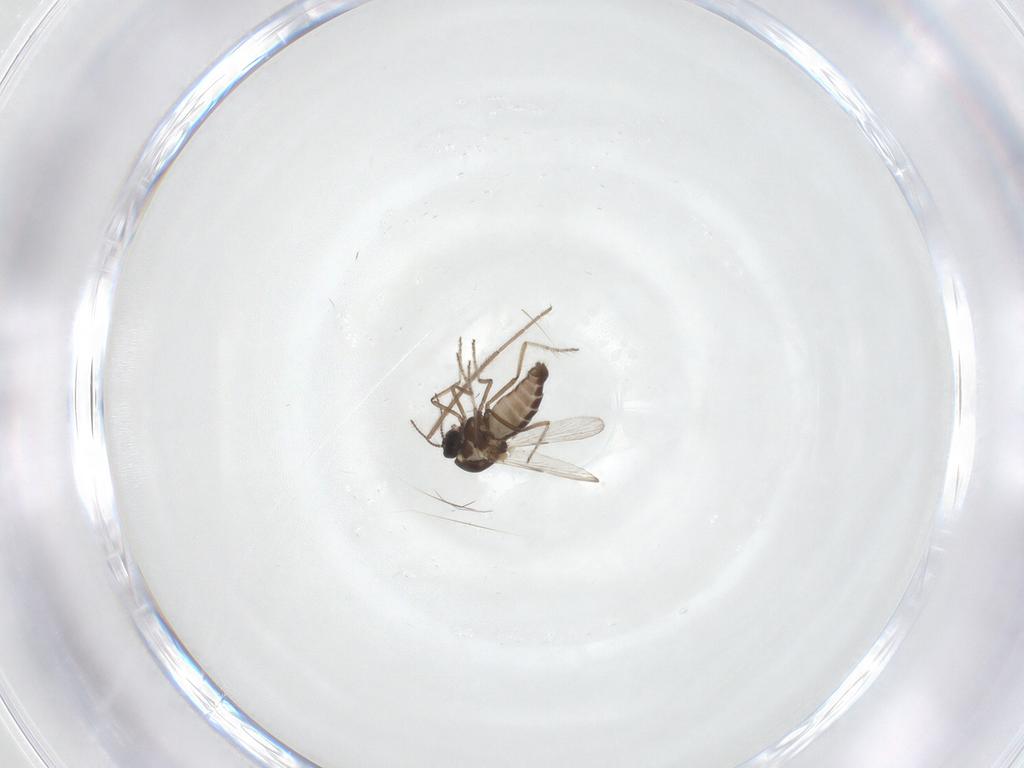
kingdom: Animalia
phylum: Arthropoda
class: Insecta
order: Diptera
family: Ceratopogonidae
